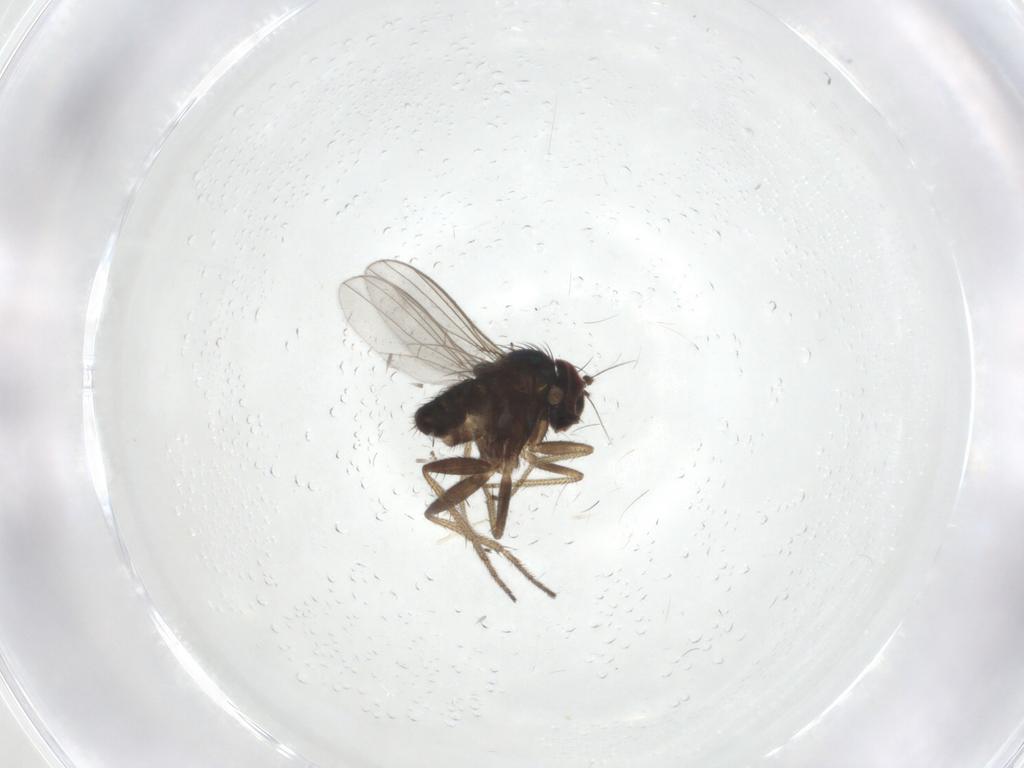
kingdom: Animalia
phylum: Arthropoda
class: Insecta
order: Diptera
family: Ceratopogonidae
